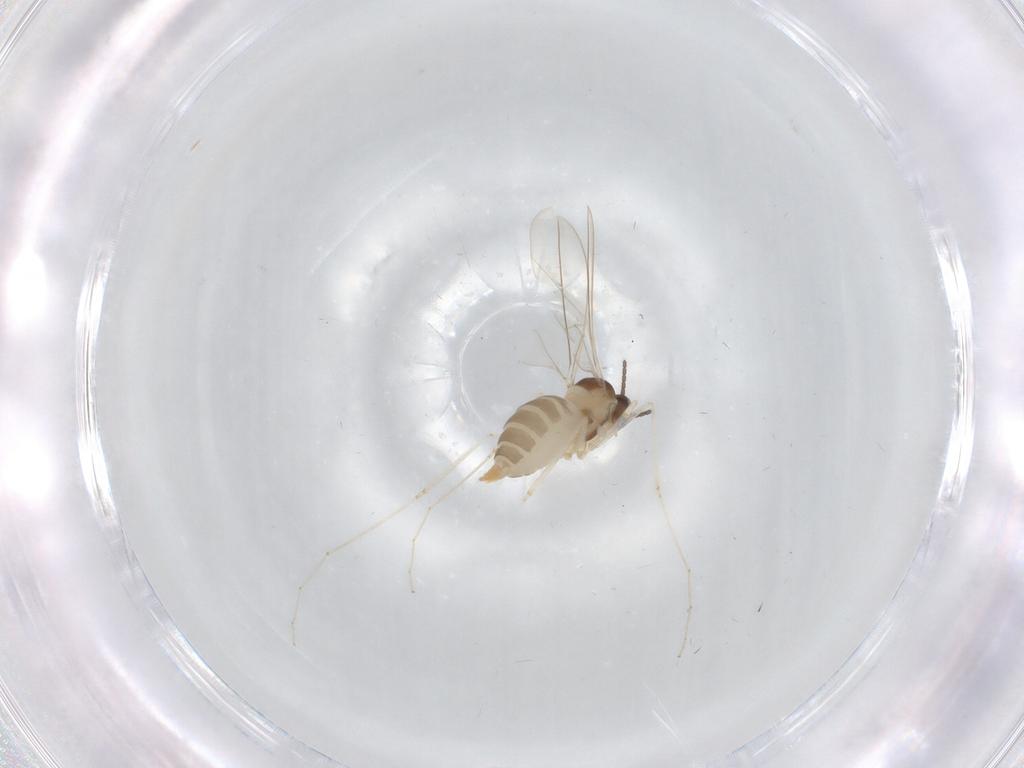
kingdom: Animalia
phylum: Arthropoda
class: Insecta
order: Diptera
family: Cecidomyiidae
